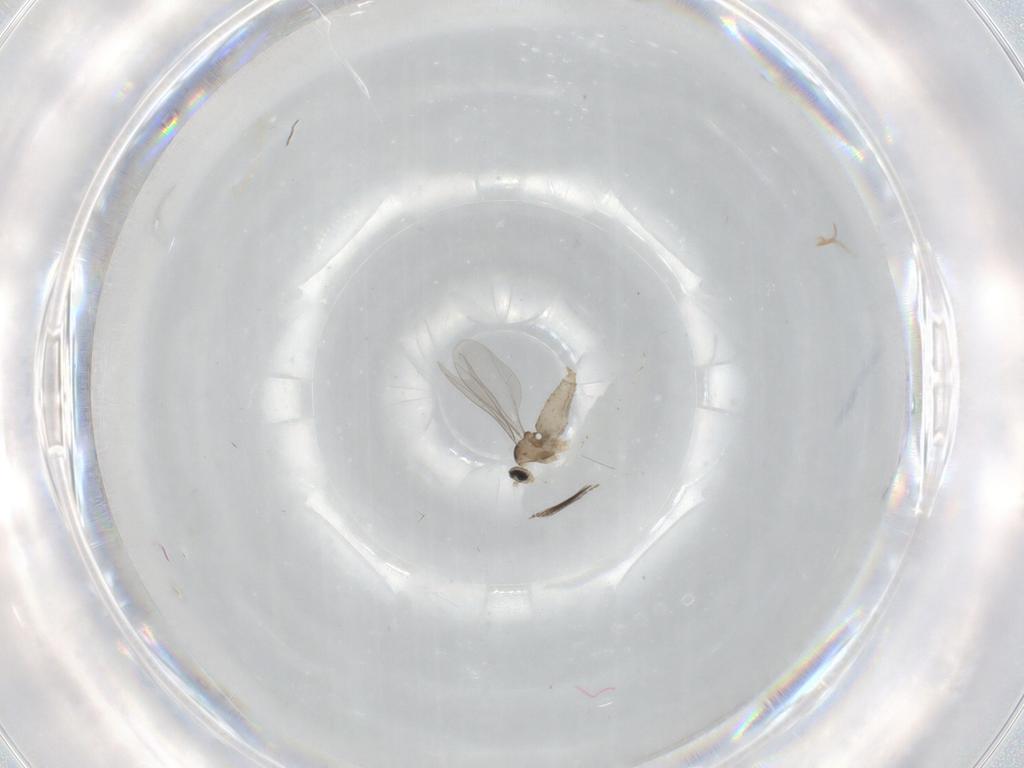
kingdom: Animalia
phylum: Arthropoda
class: Insecta
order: Diptera
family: Cecidomyiidae
